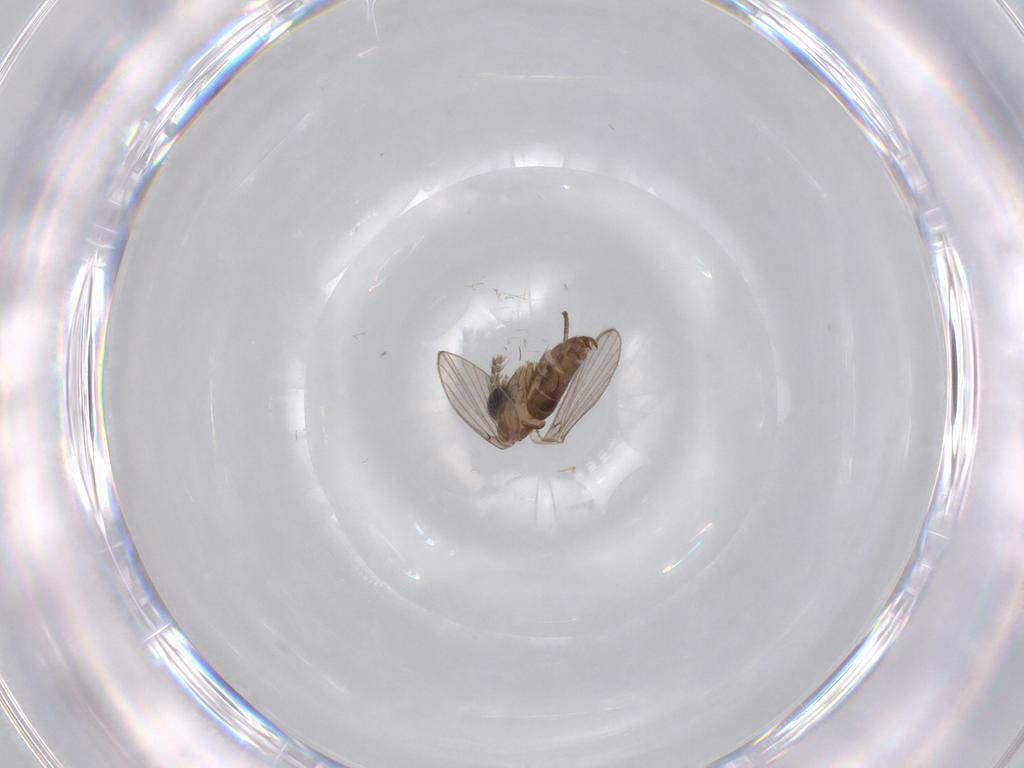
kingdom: Animalia
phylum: Arthropoda
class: Insecta
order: Diptera
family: Psychodidae
